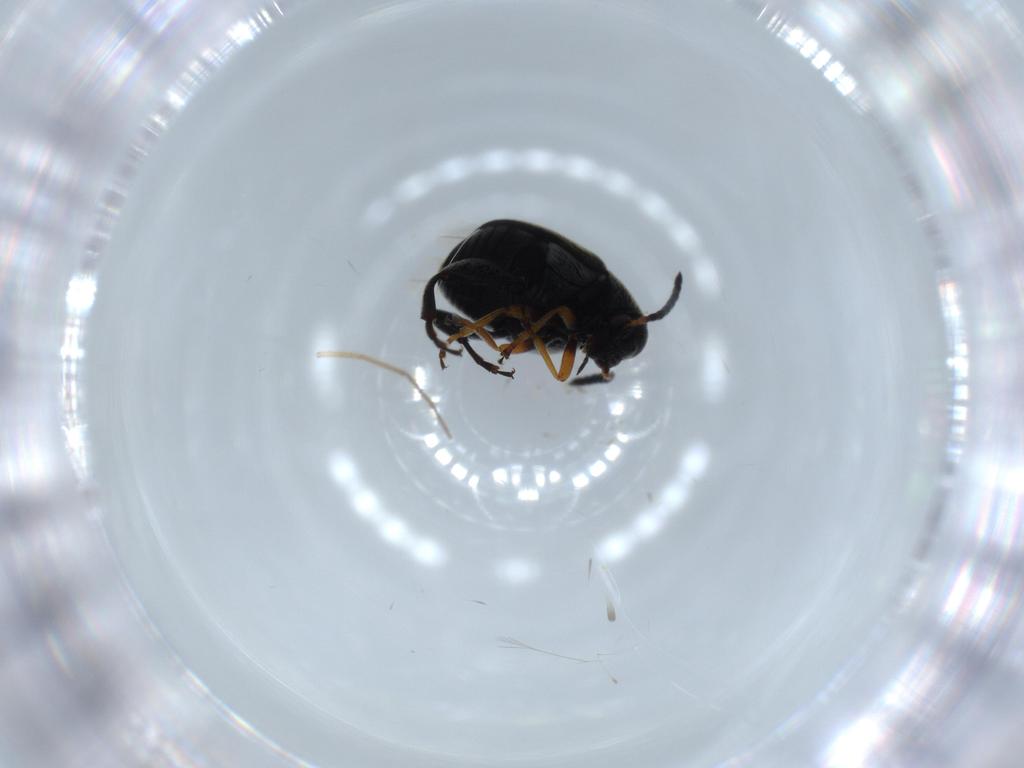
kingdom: Animalia
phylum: Arthropoda
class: Insecta
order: Coleoptera
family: Chrysomelidae
